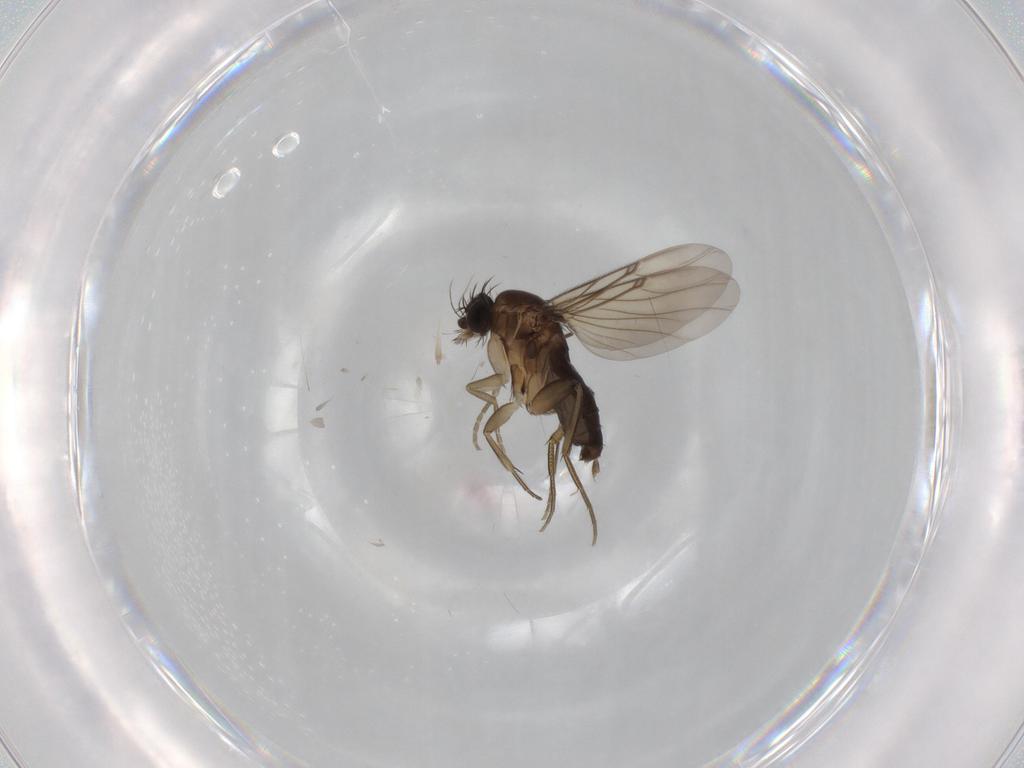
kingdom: Animalia
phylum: Arthropoda
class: Insecta
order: Diptera
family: Phoridae
